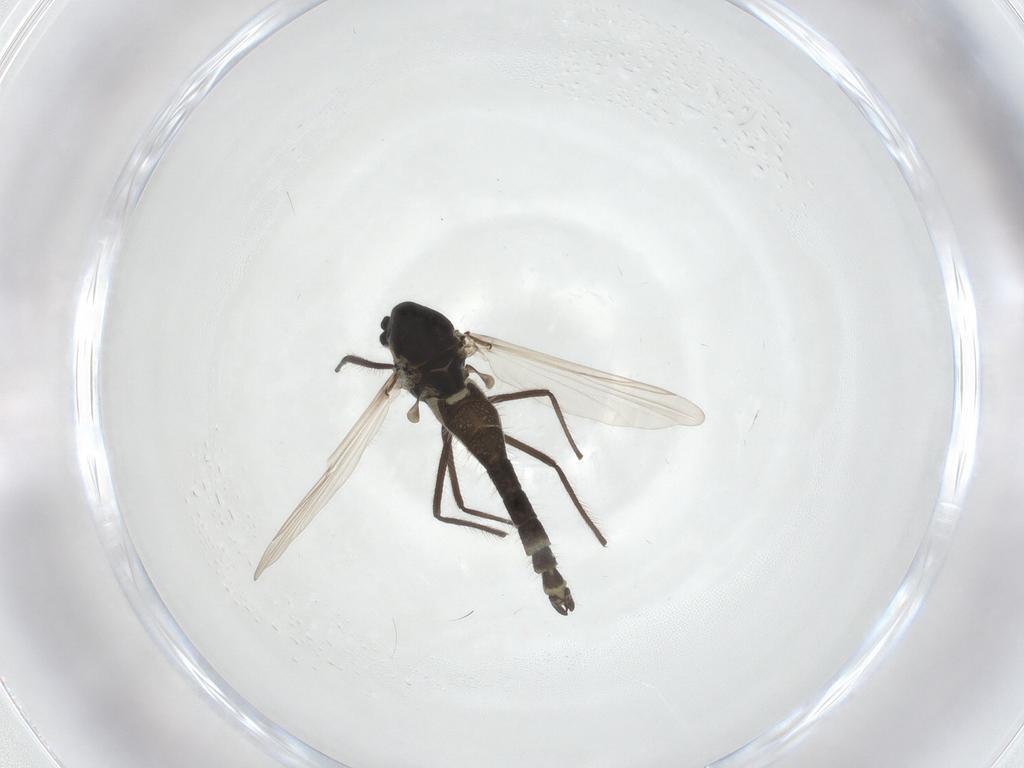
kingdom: Animalia
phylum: Arthropoda
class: Insecta
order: Diptera
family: Chironomidae
